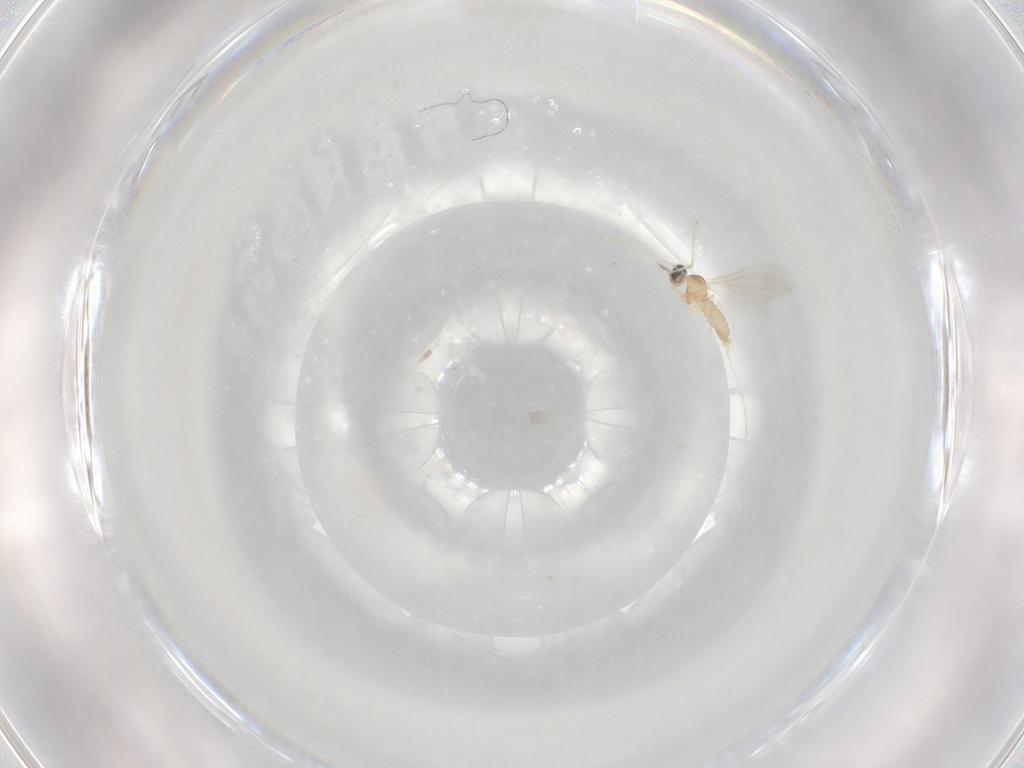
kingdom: Animalia
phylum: Arthropoda
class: Insecta
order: Diptera
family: Cecidomyiidae
